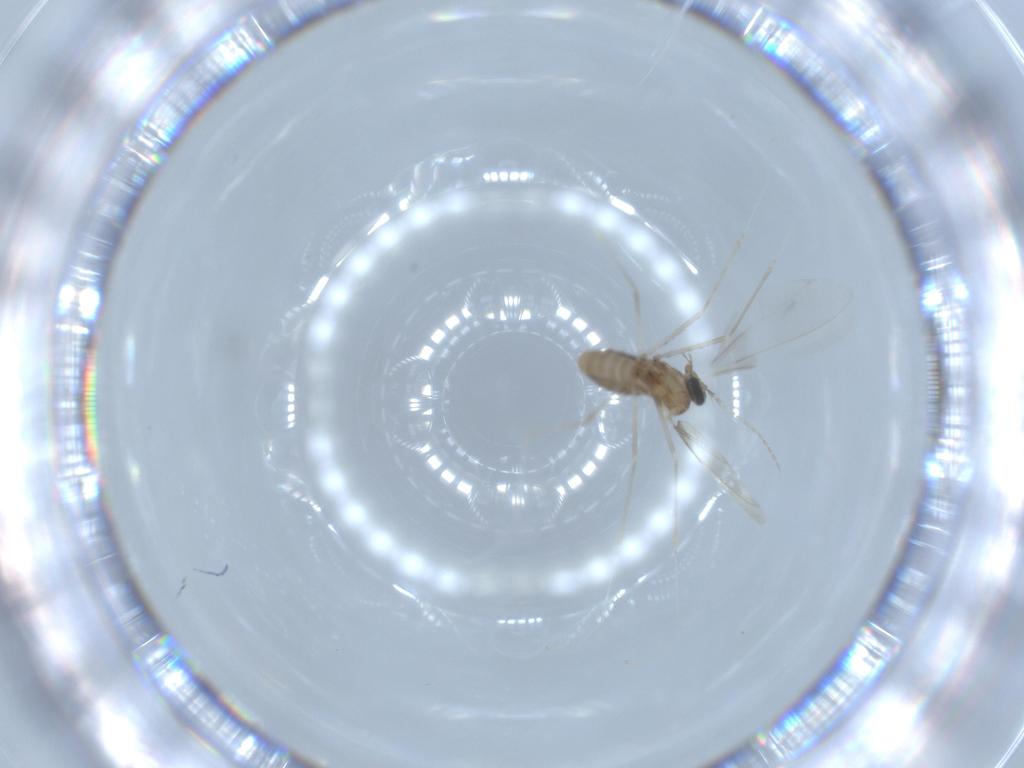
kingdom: Animalia
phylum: Arthropoda
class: Insecta
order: Diptera
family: Cecidomyiidae
